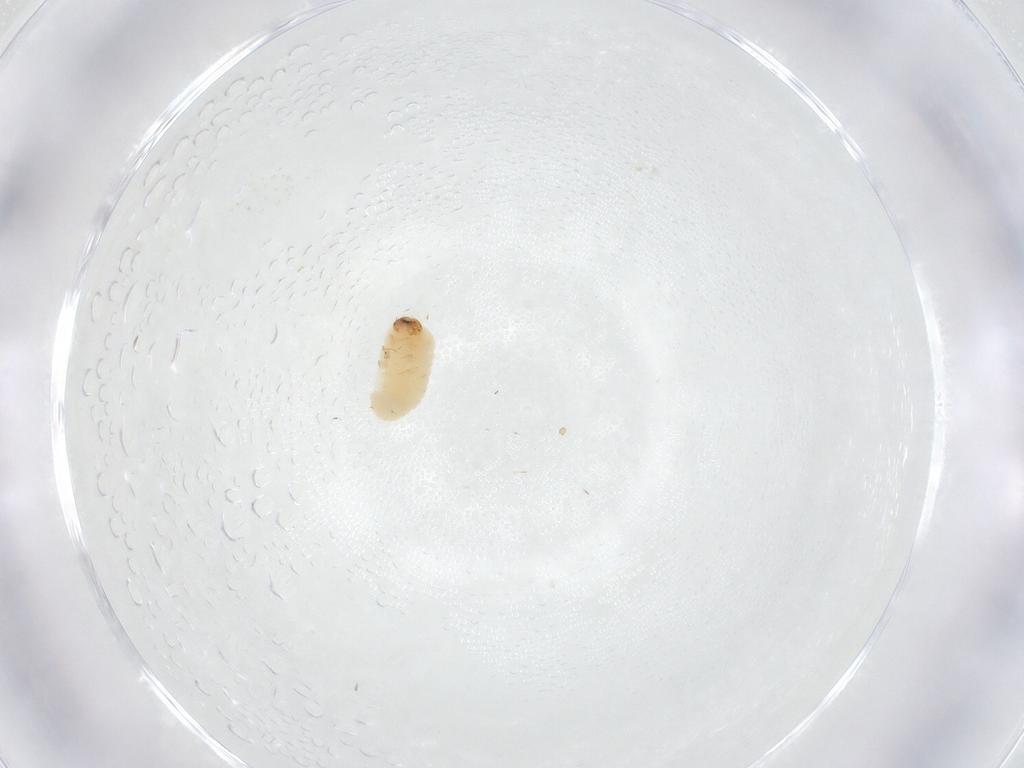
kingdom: Animalia
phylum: Arthropoda
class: Insecta
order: Coleoptera
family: Bostrichidae
